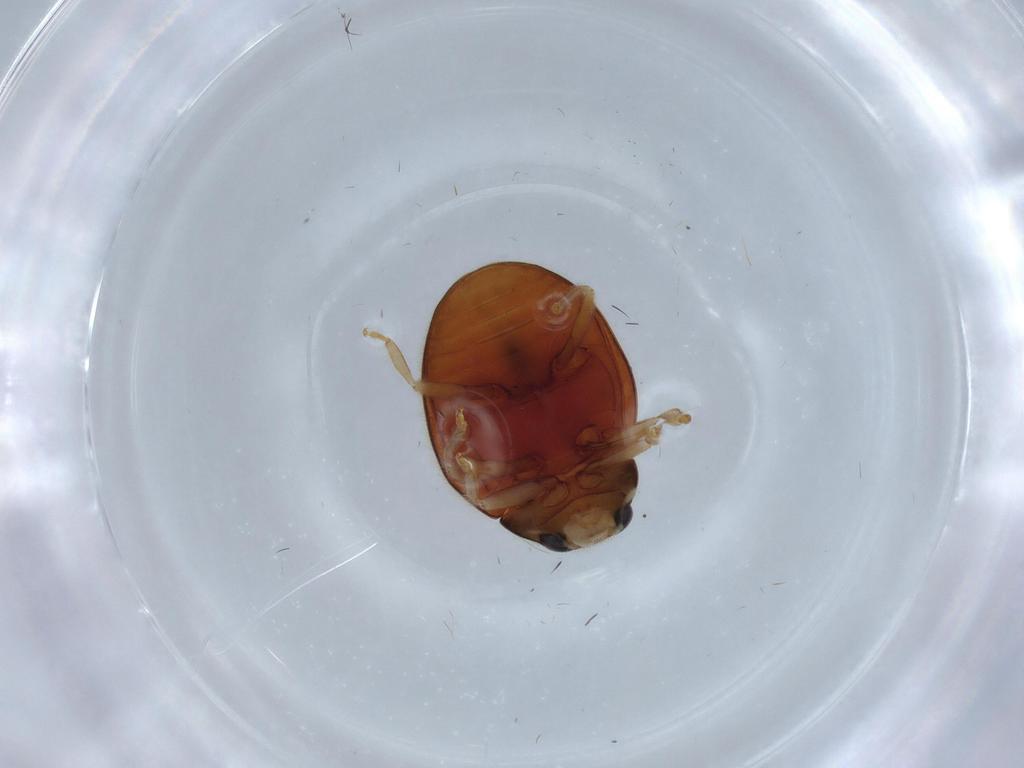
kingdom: Animalia
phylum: Arthropoda
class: Insecta
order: Coleoptera
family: Coccinellidae
